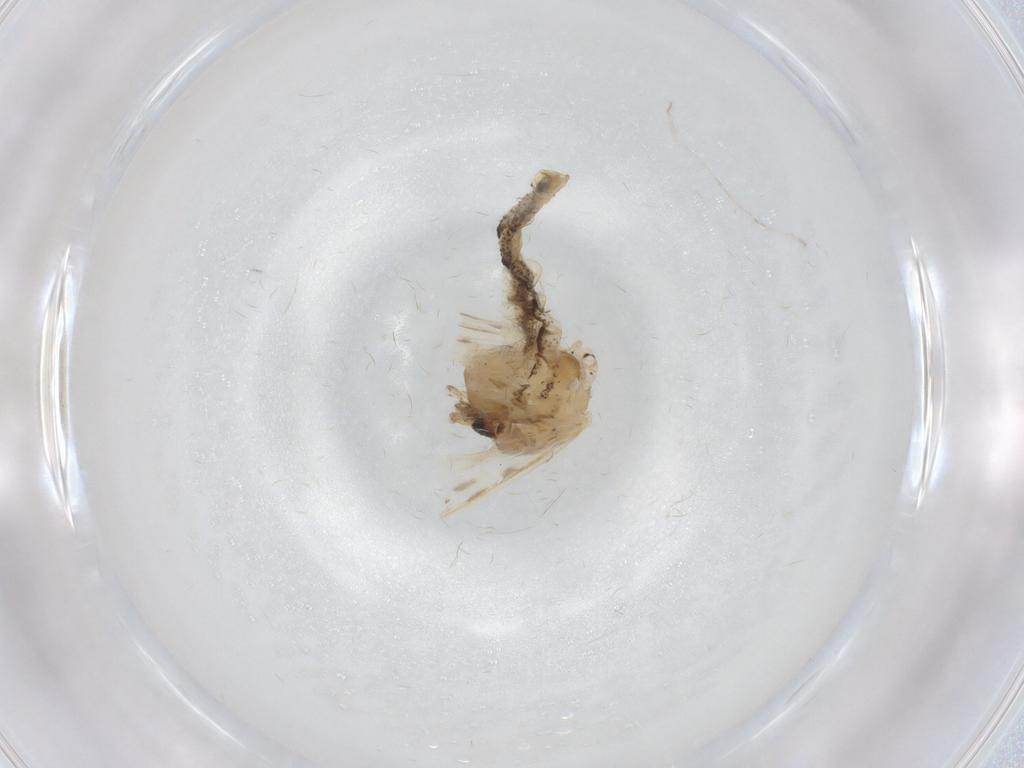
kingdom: Animalia
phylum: Arthropoda
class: Insecta
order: Diptera
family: Chaoboridae
